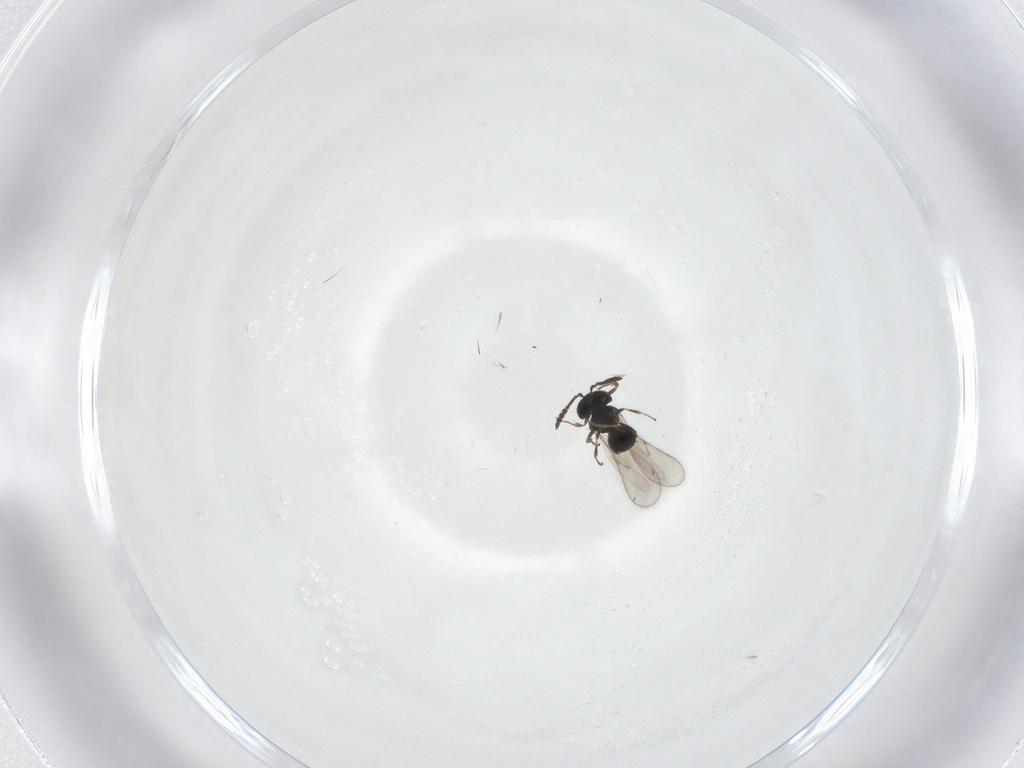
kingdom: Animalia
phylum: Arthropoda
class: Insecta
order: Hymenoptera
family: Scelionidae
